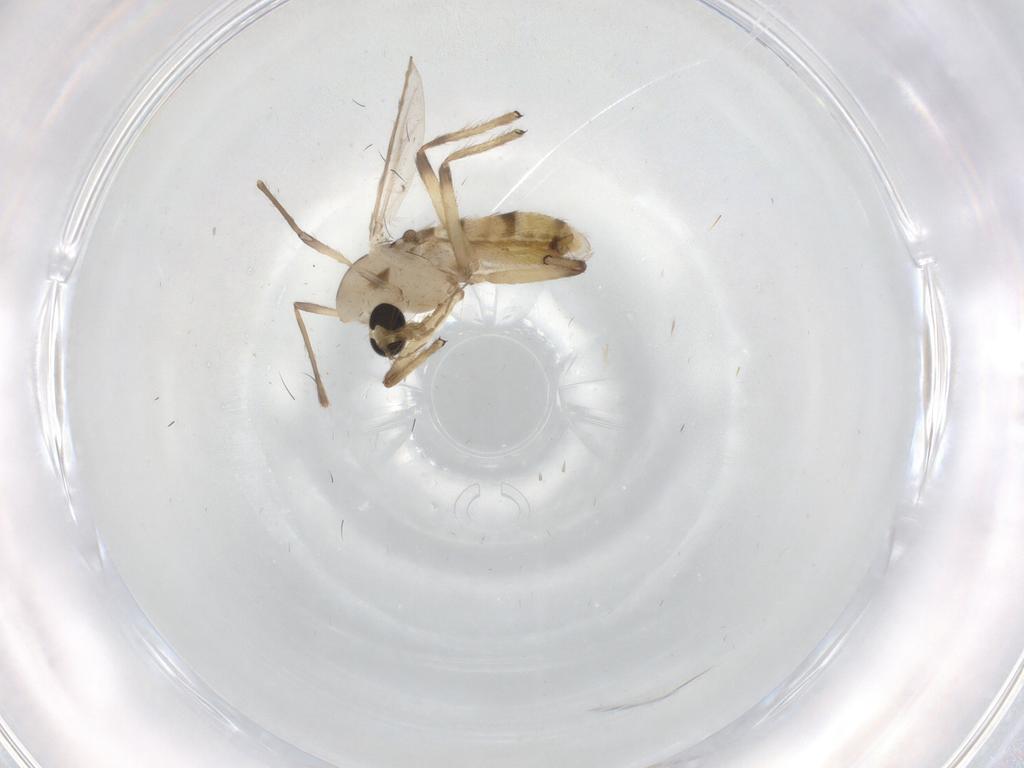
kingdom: Animalia
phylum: Arthropoda
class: Insecta
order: Diptera
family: Chironomidae
